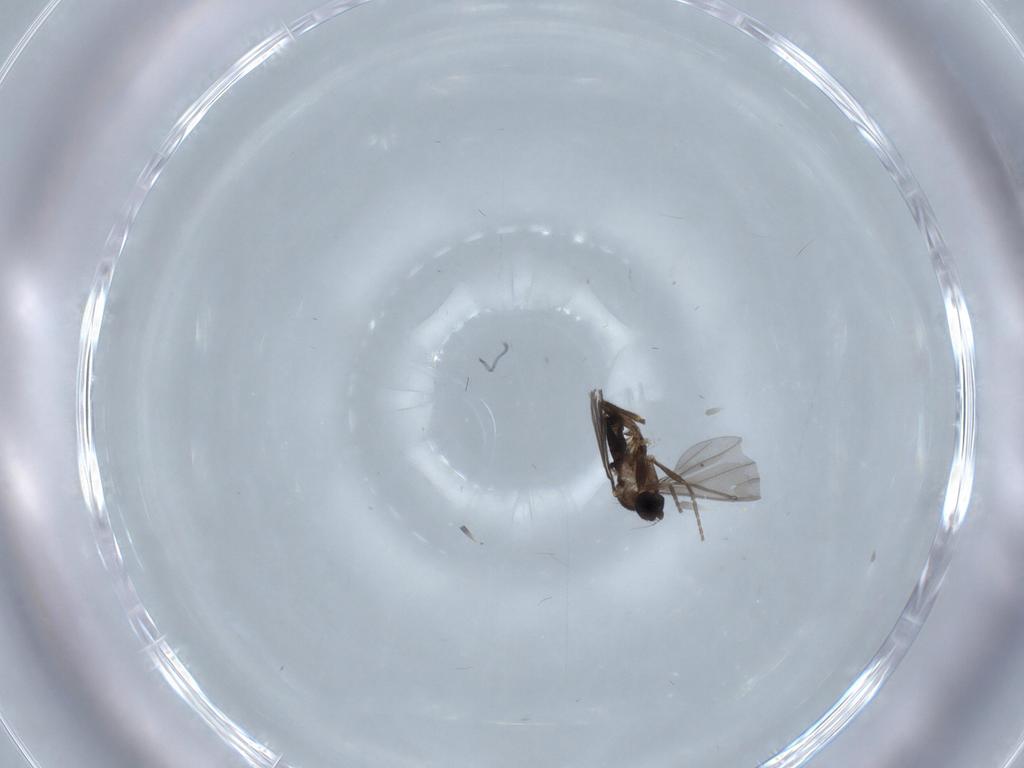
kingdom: Animalia
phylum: Arthropoda
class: Insecta
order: Diptera
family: Phoridae
